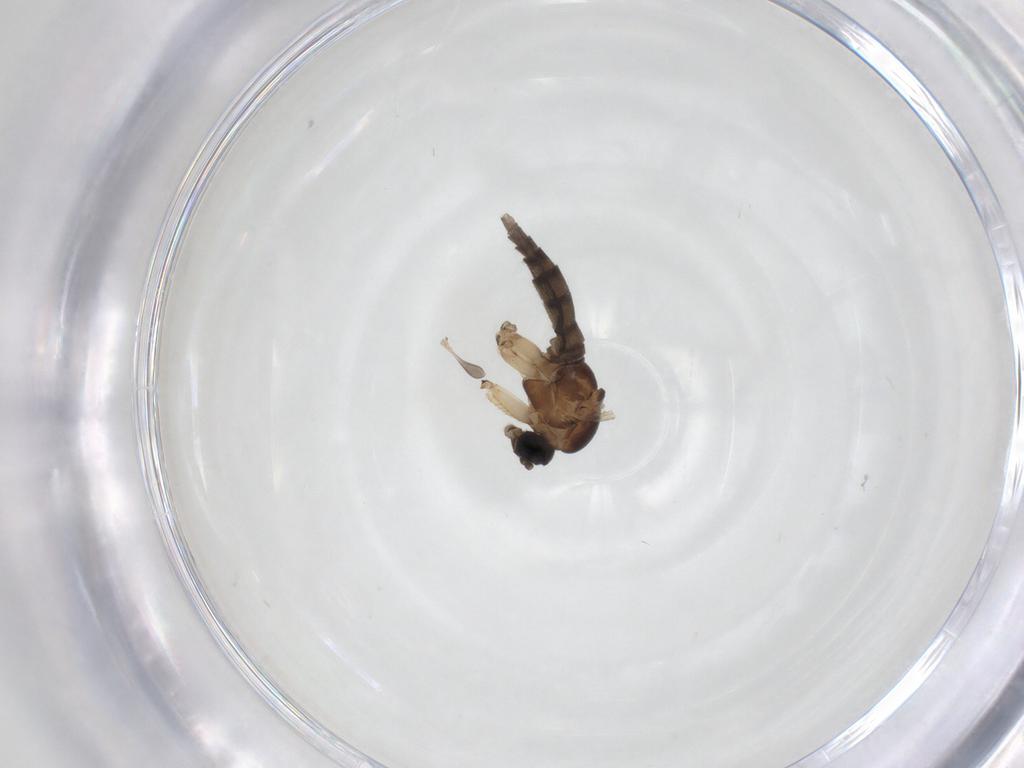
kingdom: Animalia
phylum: Arthropoda
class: Insecta
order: Diptera
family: Sciaridae
